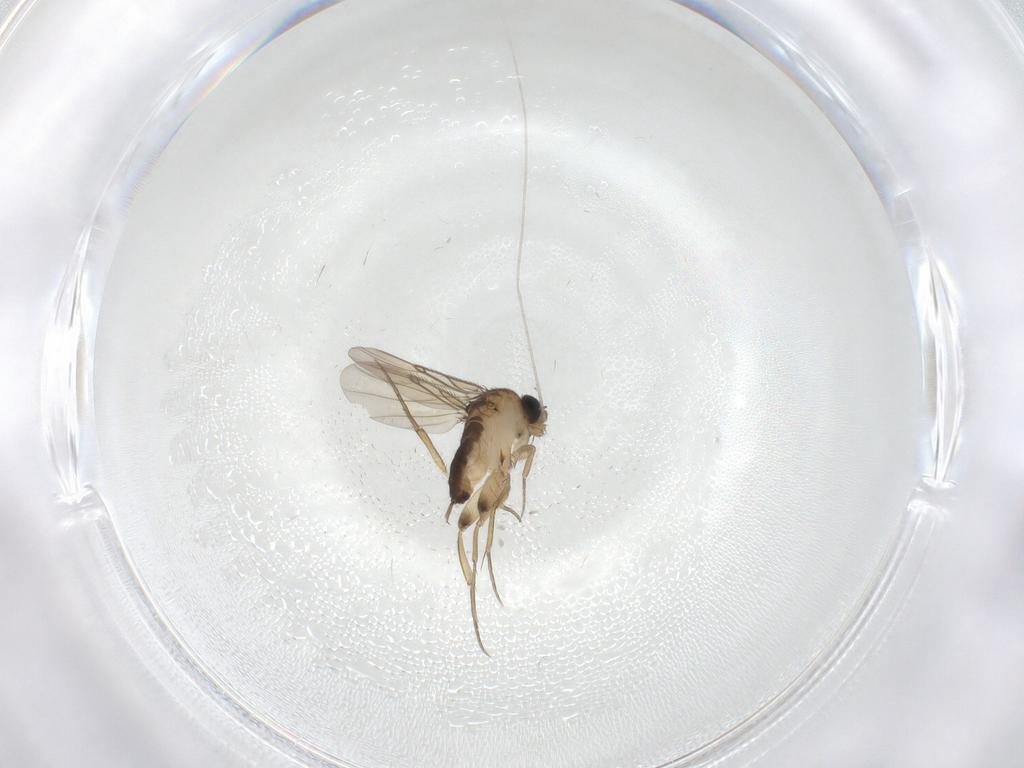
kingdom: Animalia
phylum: Arthropoda
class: Insecta
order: Diptera
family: Phoridae
